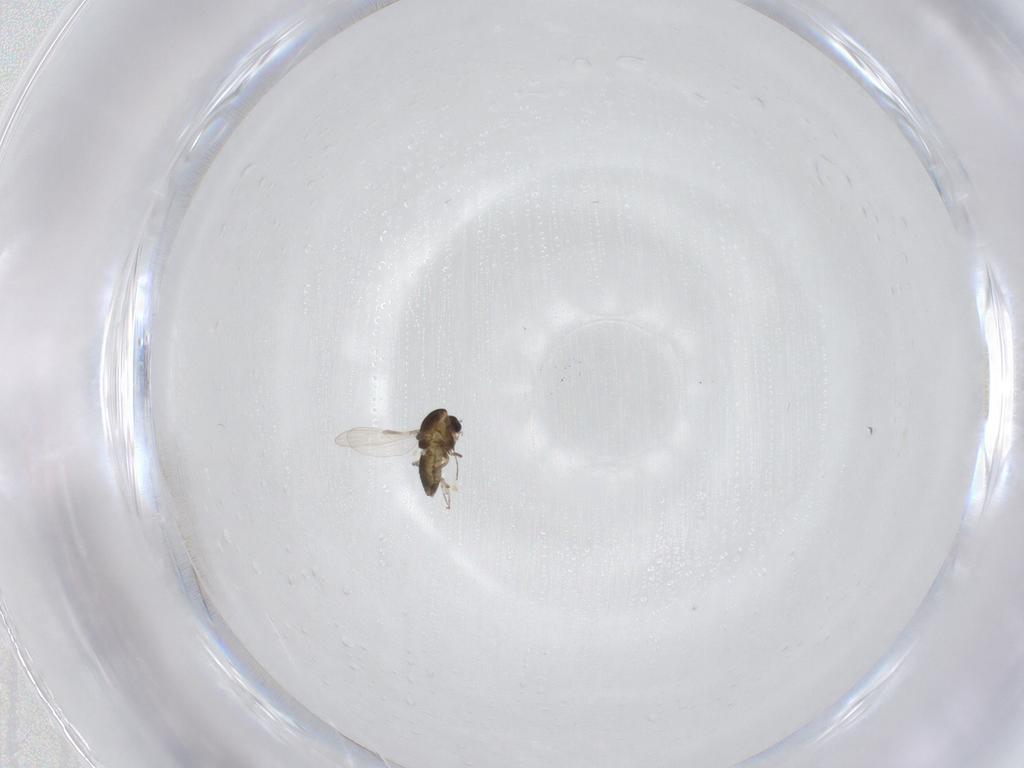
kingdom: Animalia
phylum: Arthropoda
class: Insecta
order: Diptera
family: Chironomidae
